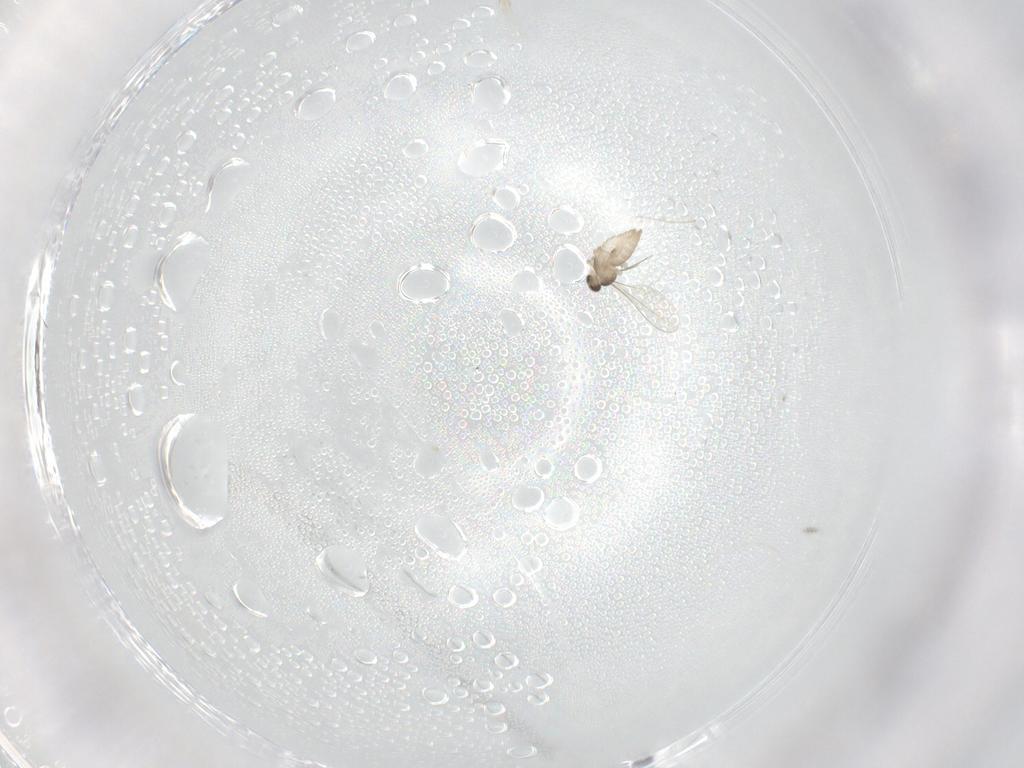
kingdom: Animalia
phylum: Arthropoda
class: Insecta
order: Diptera
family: Cecidomyiidae
